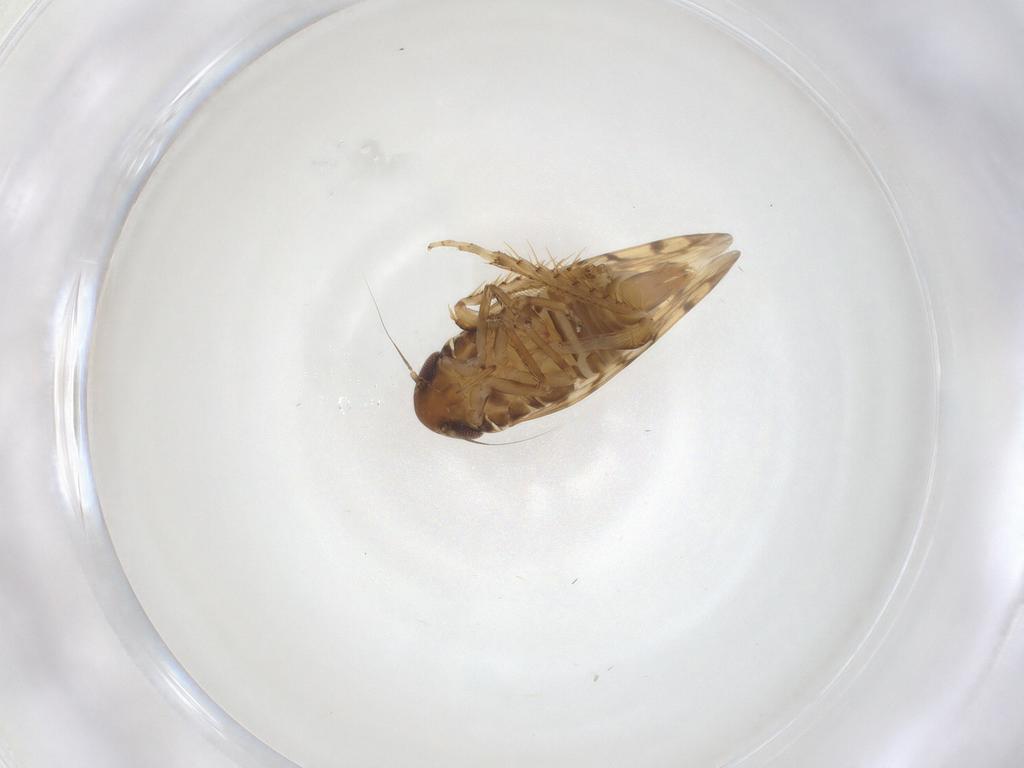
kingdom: Animalia
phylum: Arthropoda
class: Insecta
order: Hemiptera
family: Cicadellidae
